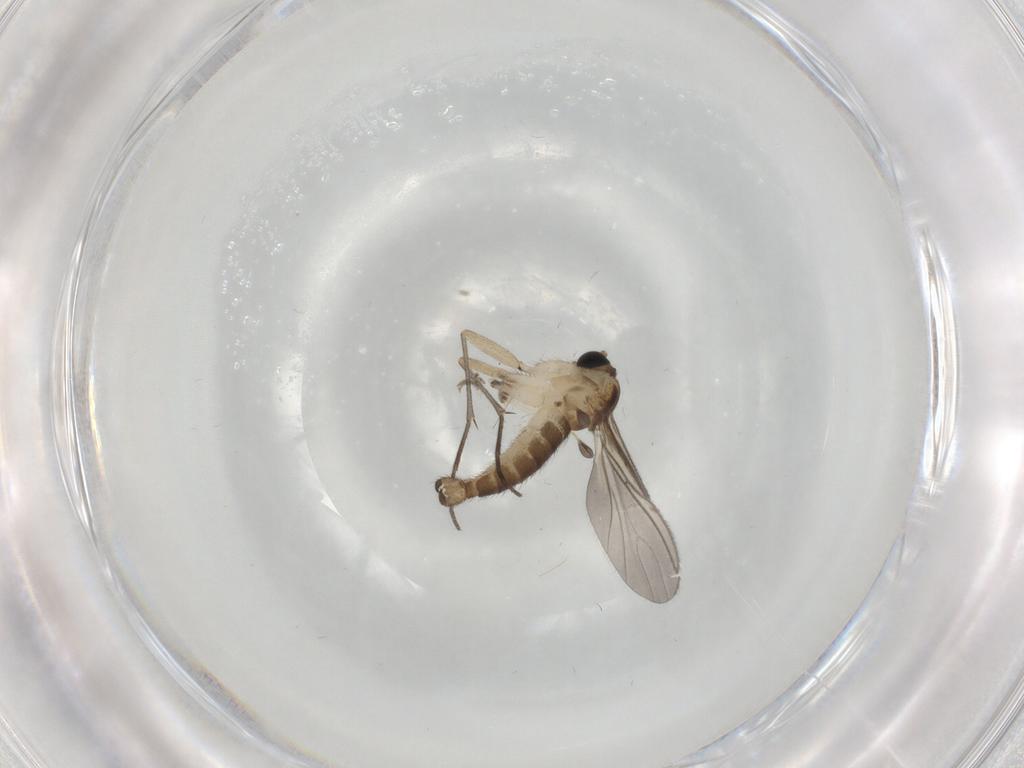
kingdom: Animalia
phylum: Arthropoda
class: Insecta
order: Diptera
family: Sciaridae
